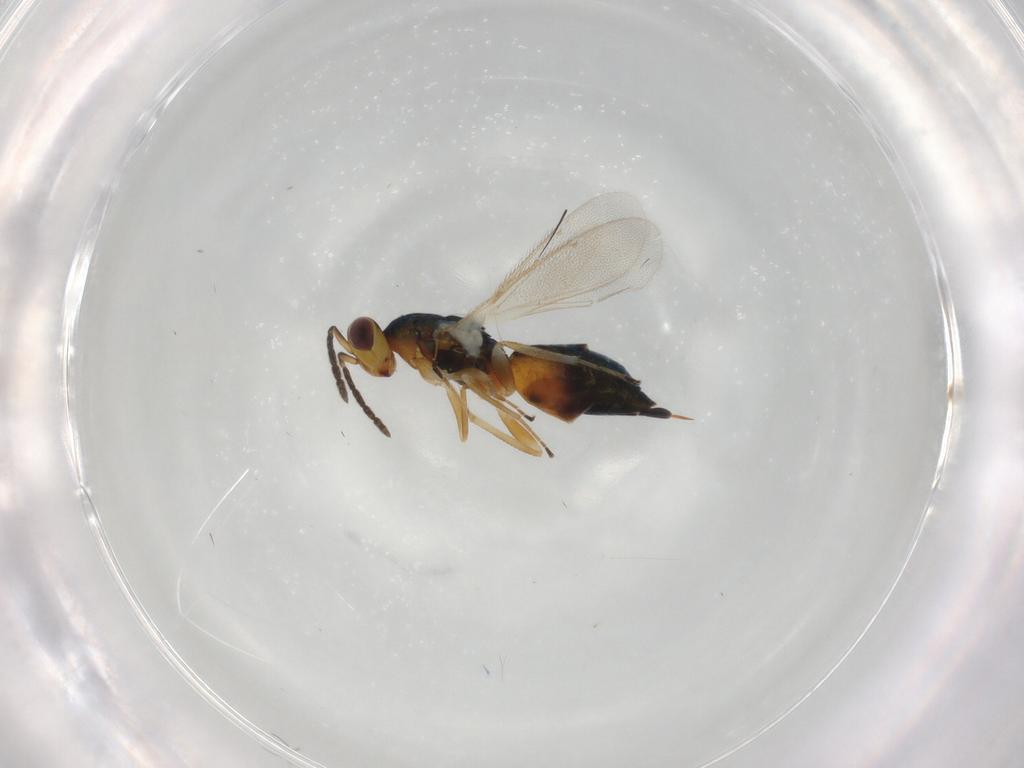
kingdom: Animalia
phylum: Arthropoda
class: Insecta
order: Hymenoptera
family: Eulophidae
